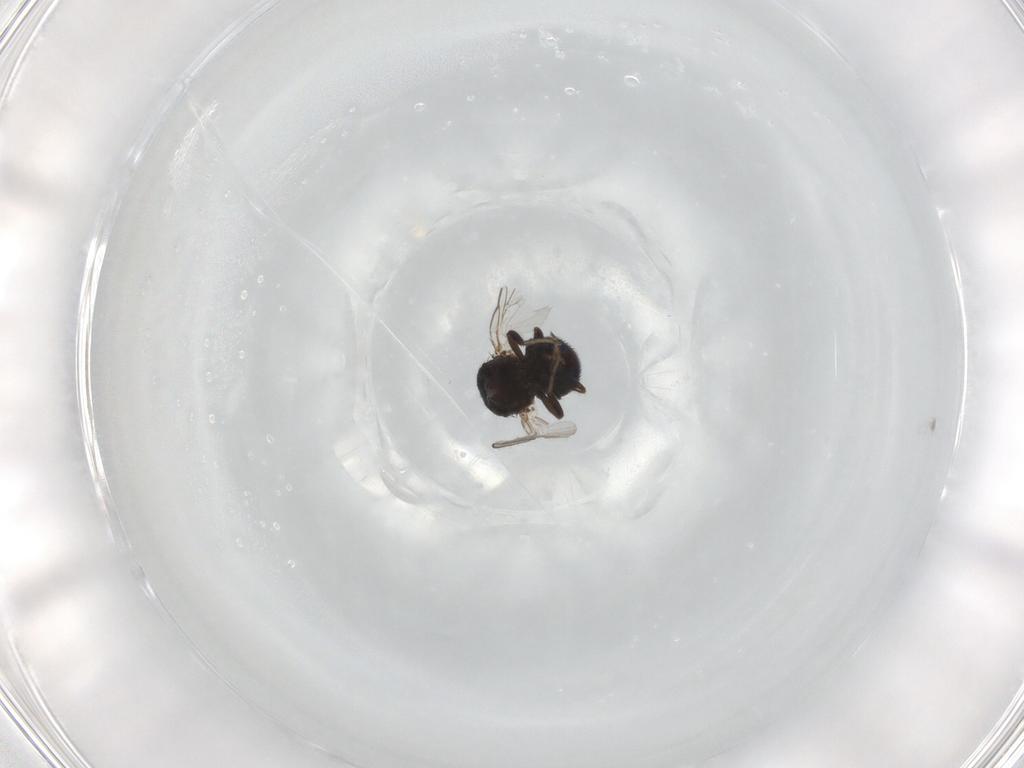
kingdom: Animalia
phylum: Arthropoda
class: Insecta
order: Diptera
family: Cryptochetidae
